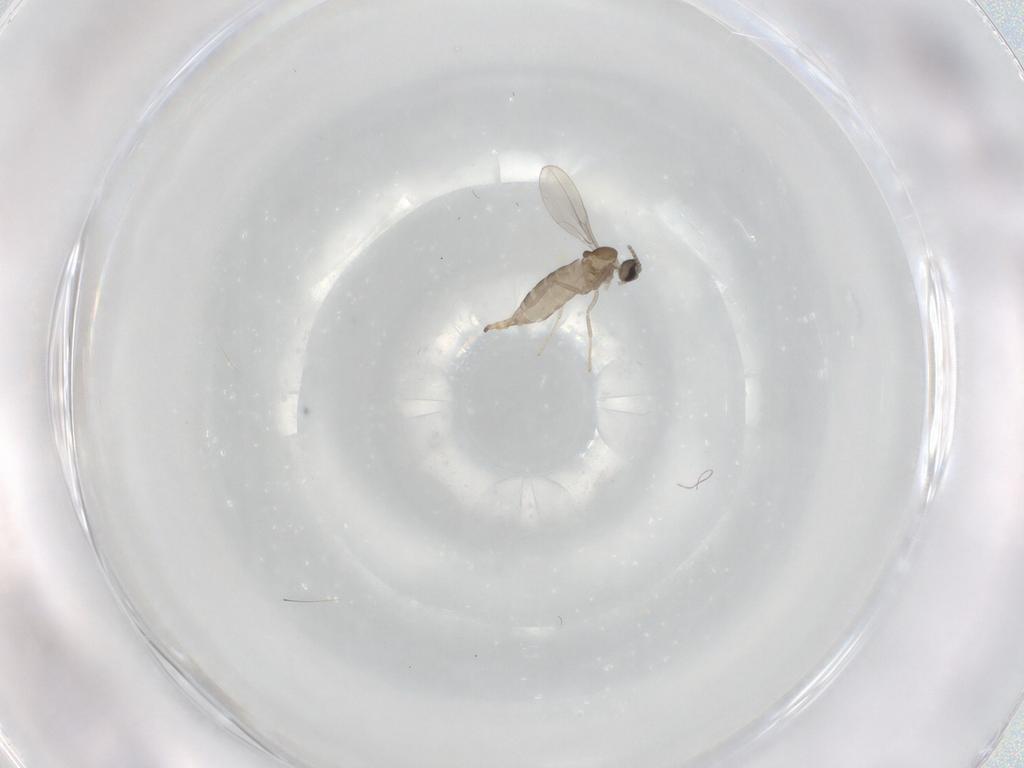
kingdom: Animalia
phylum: Arthropoda
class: Insecta
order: Diptera
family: Cecidomyiidae
